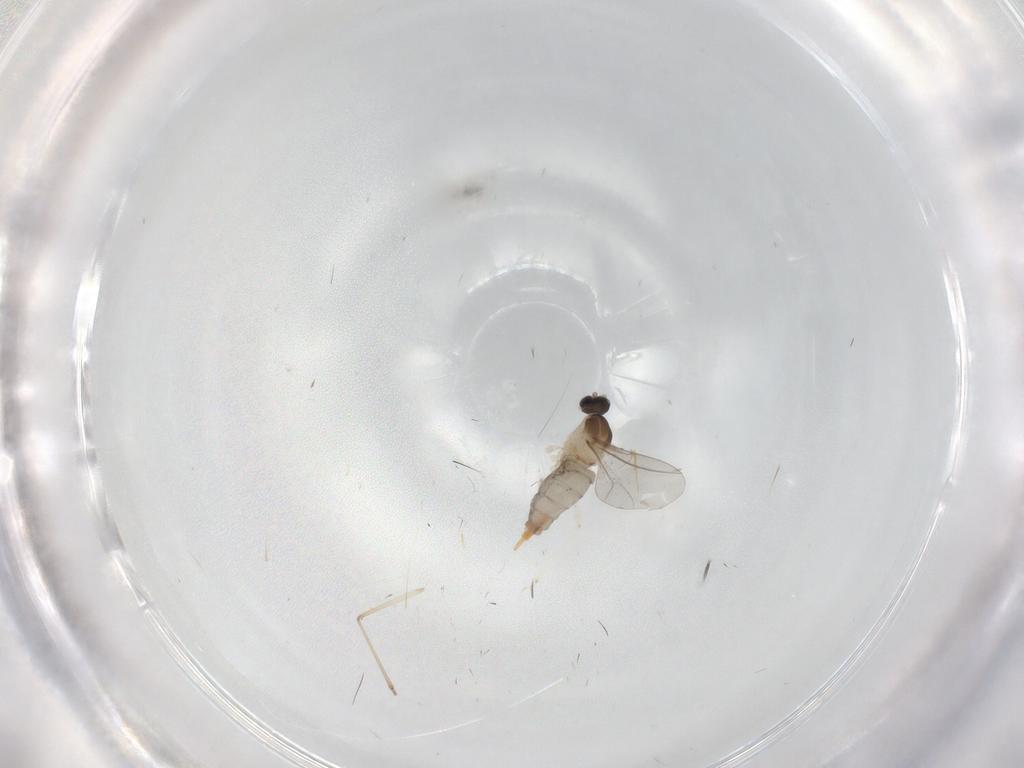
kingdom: Animalia
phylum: Arthropoda
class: Insecta
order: Diptera
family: Cecidomyiidae
